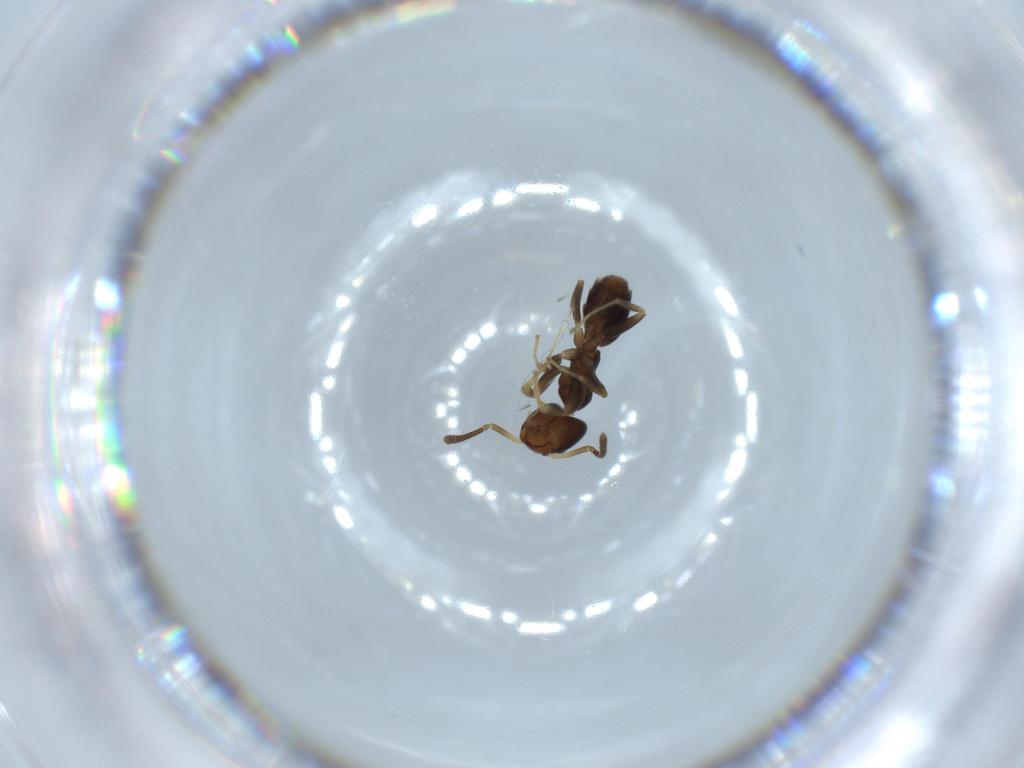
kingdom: Animalia
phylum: Arthropoda
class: Insecta
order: Hymenoptera
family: Formicidae
